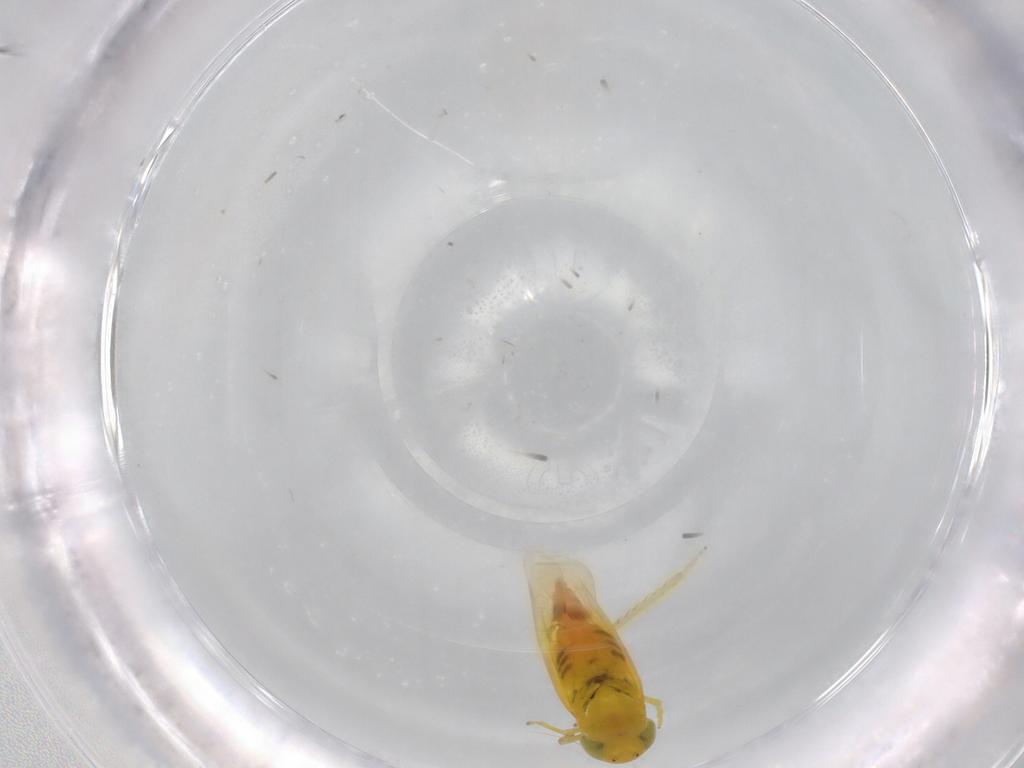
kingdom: Animalia
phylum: Arthropoda
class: Insecta
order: Hemiptera
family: Cicadellidae
